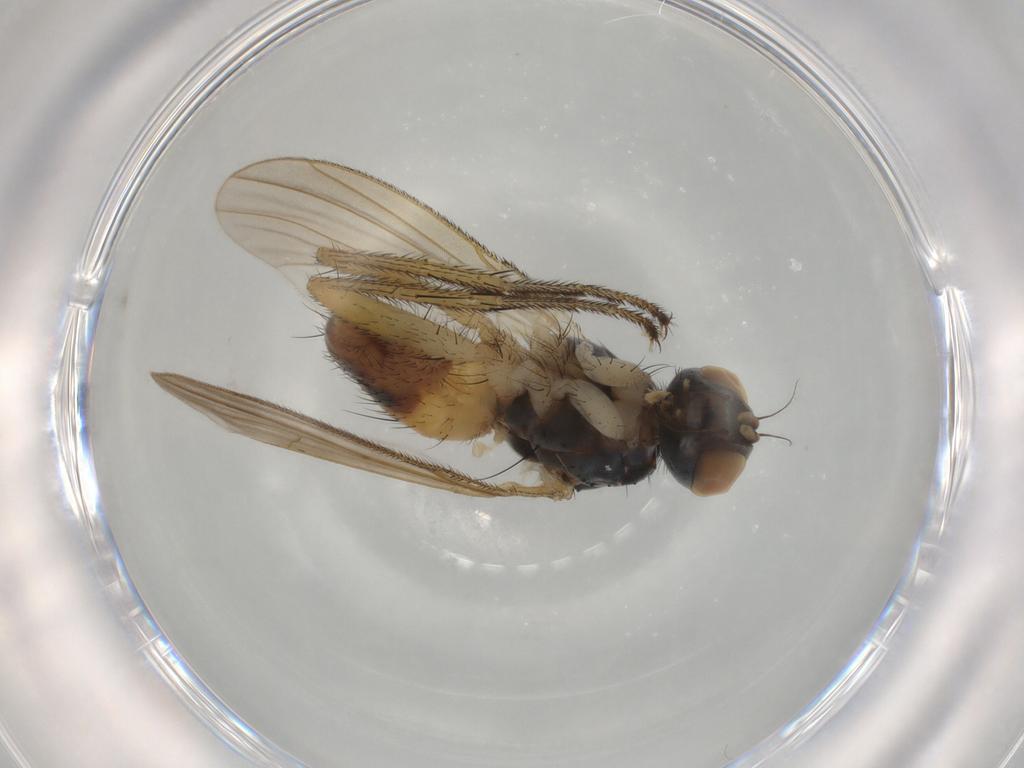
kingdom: Animalia
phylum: Arthropoda
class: Insecta
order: Diptera
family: Muscidae
